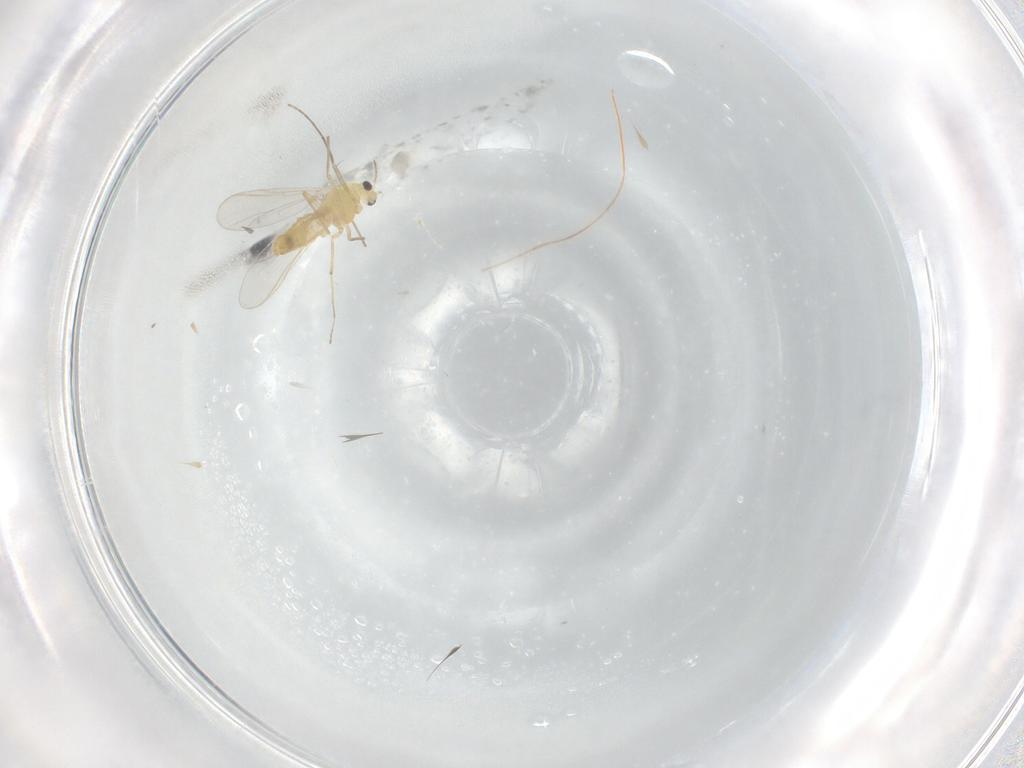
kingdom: Animalia
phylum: Arthropoda
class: Insecta
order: Diptera
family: Chironomidae
